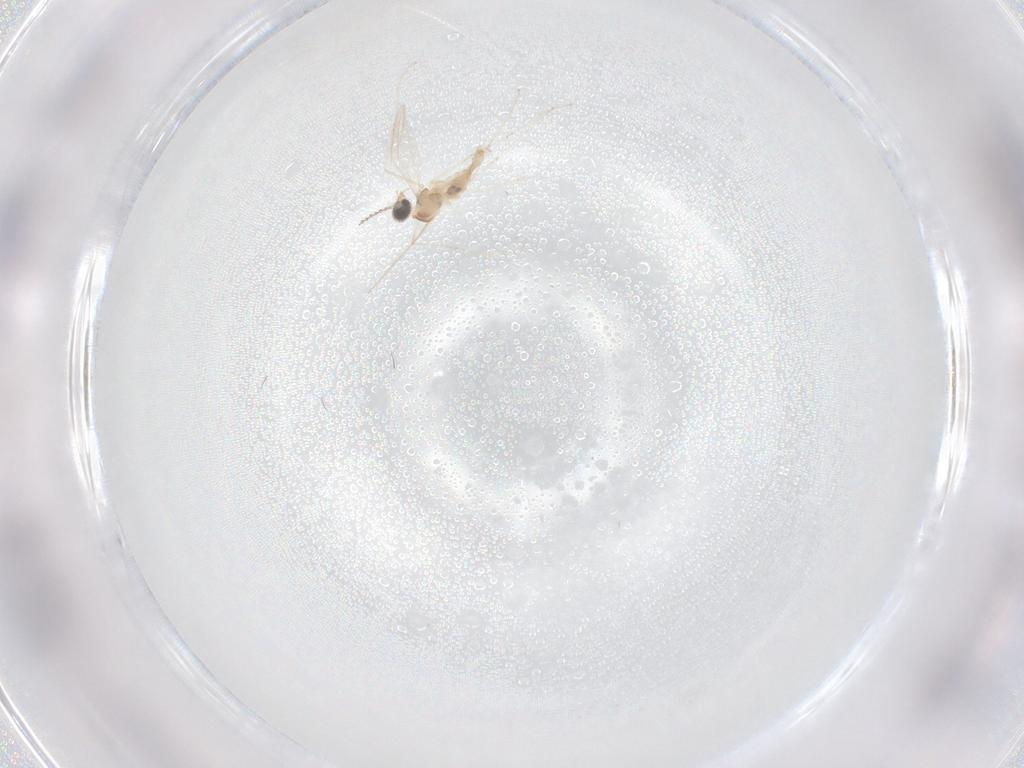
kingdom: Animalia
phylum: Arthropoda
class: Insecta
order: Diptera
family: Cecidomyiidae
